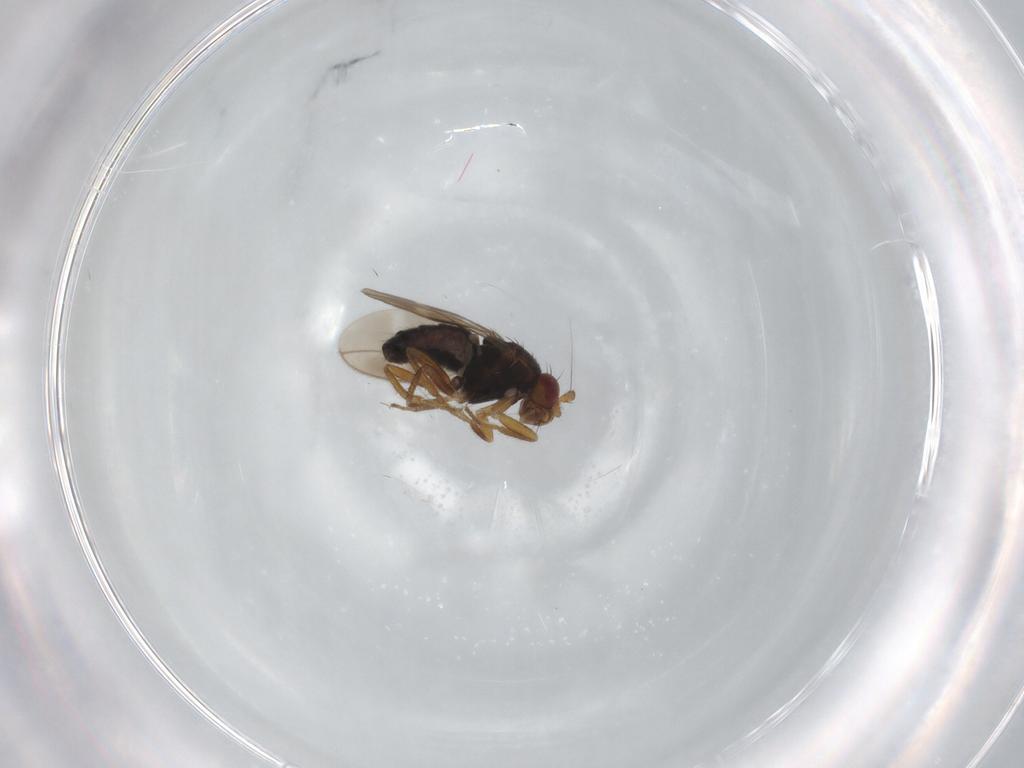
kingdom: Animalia
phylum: Arthropoda
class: Insecta
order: Diptera
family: Sphaeroceridae
